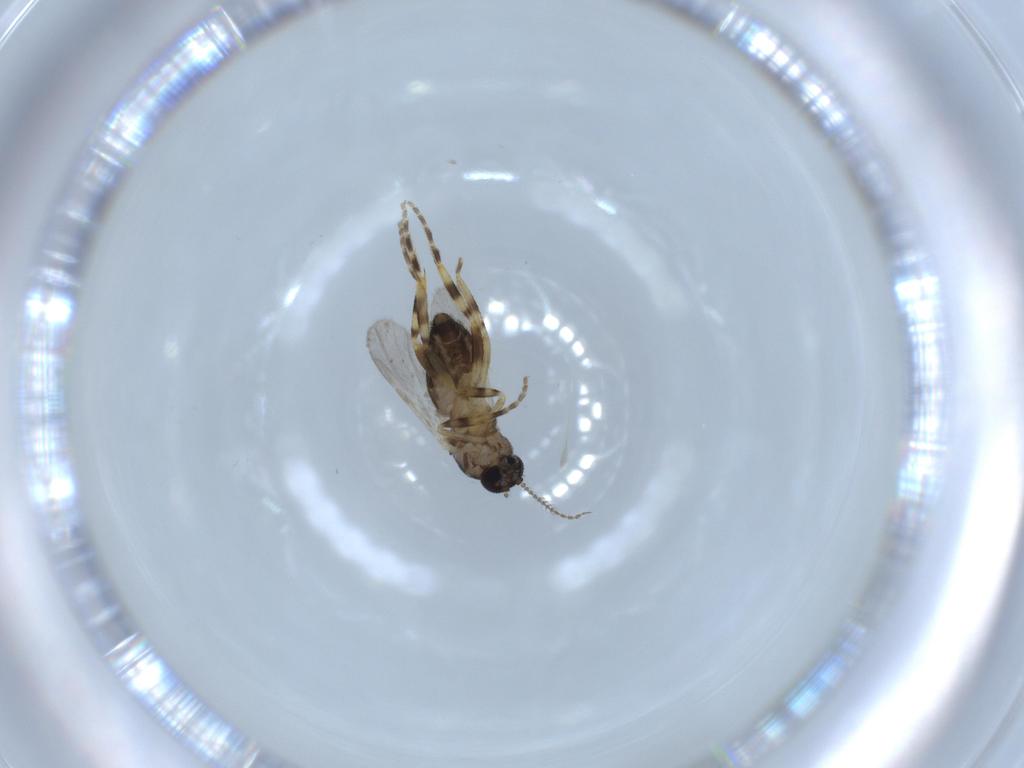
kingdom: Animalia
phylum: Arthropoda
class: Insecta
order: Diptera
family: Ceratopogonidae
